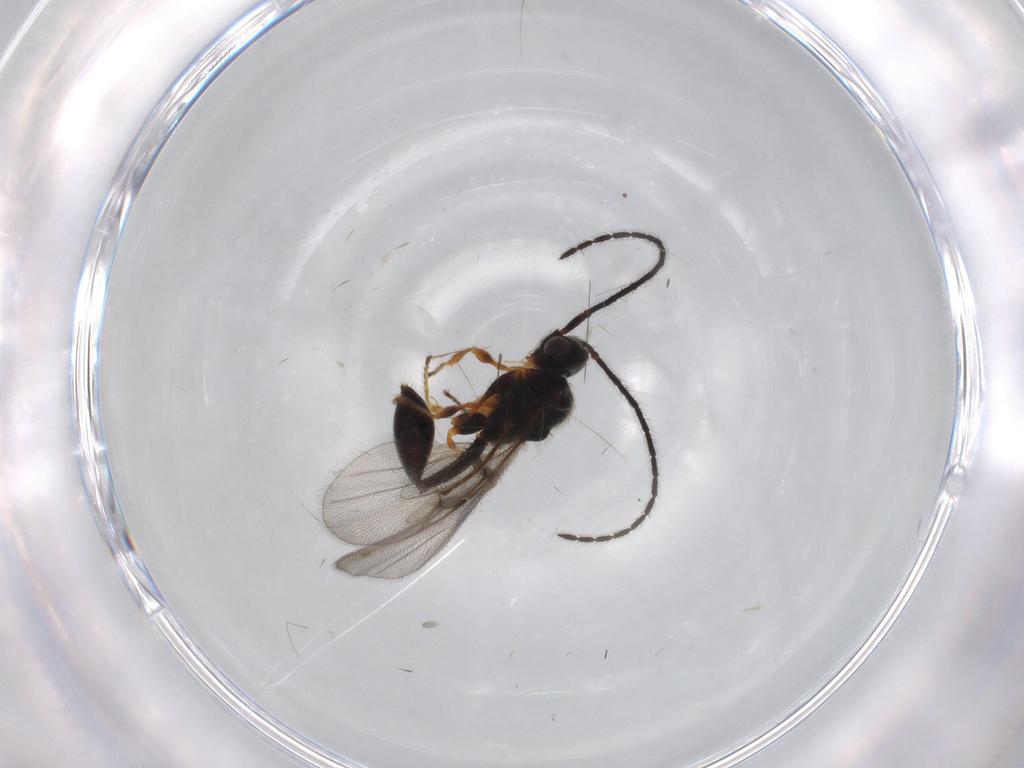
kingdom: Animalia
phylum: Arthropoda
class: Insecta
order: Hymenoptera
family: Diapriidae
